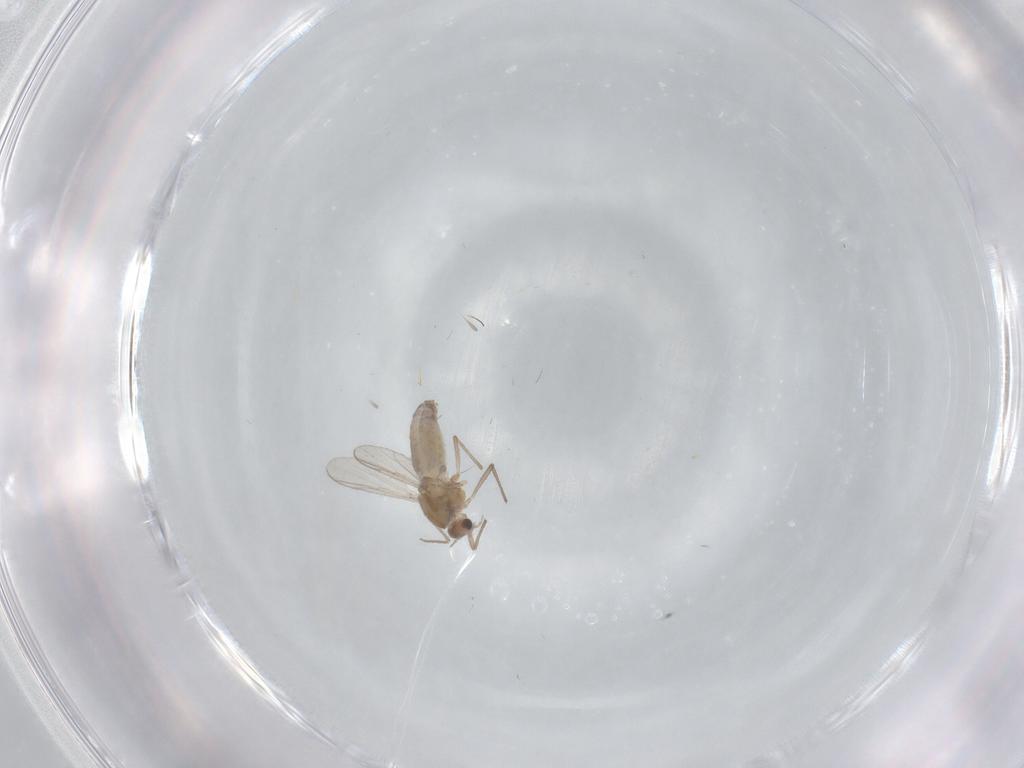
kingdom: Animalia
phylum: Arthropoda
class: Insecta
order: Diptera
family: Chironomidae
